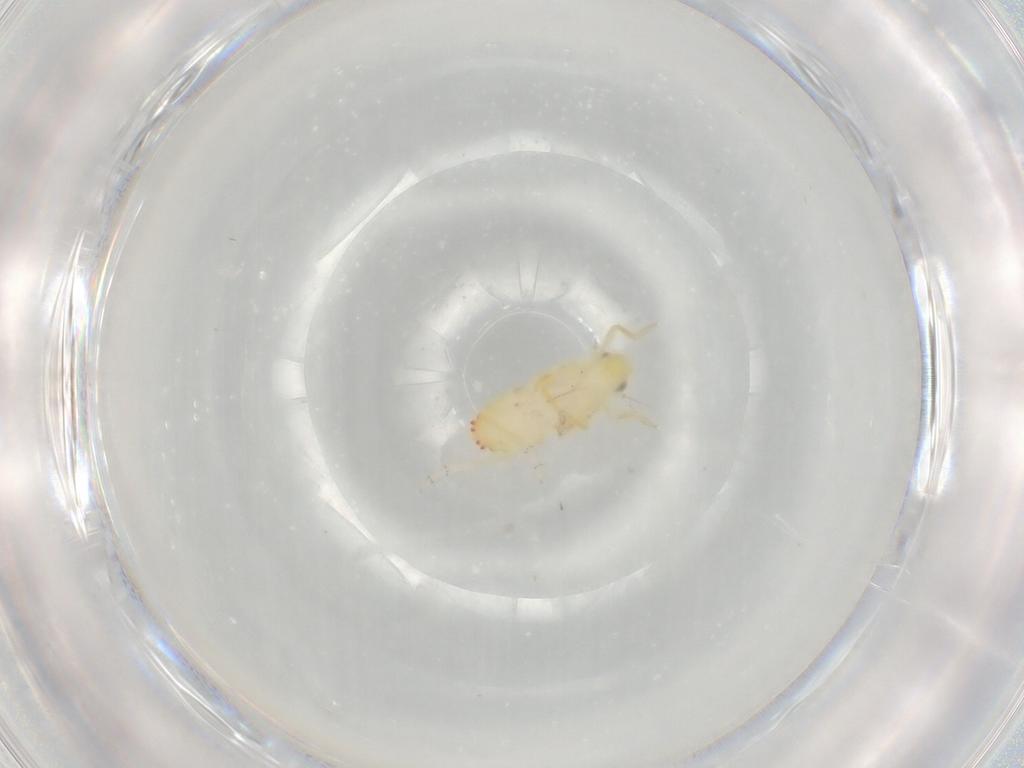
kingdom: Animalia
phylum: Arthropoda
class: Insecta
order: Hemiptera
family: Tropiduchidae
